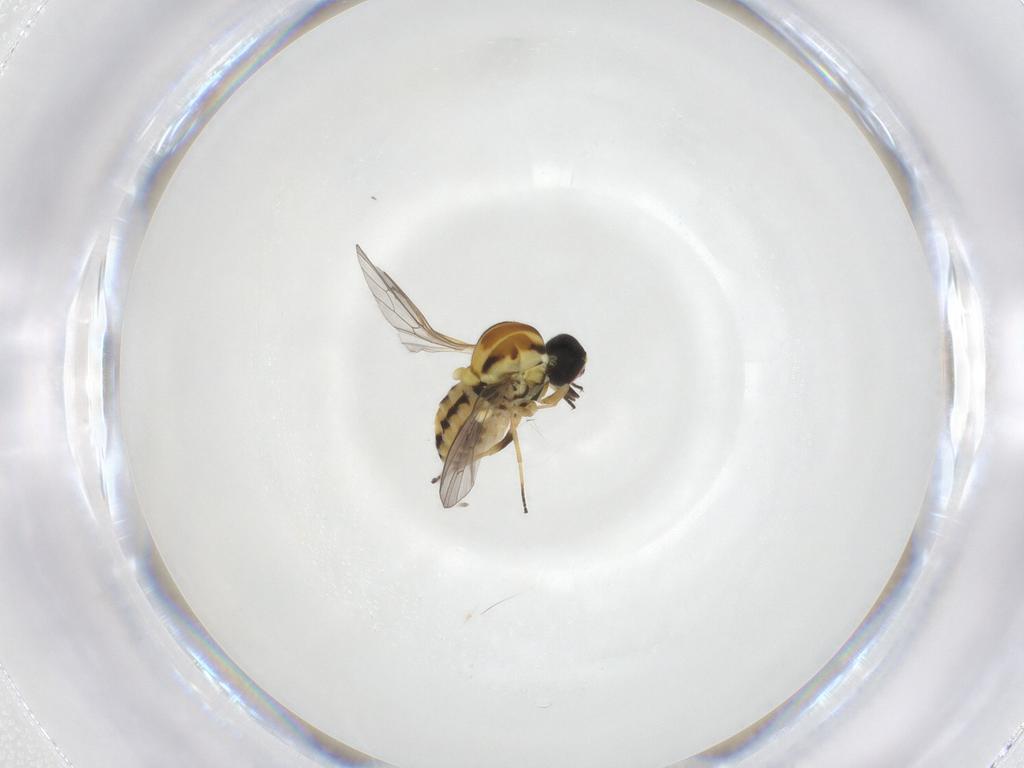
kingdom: Animalia
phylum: Arthropoda
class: Insecta
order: Diptera
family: Bombyliidae
